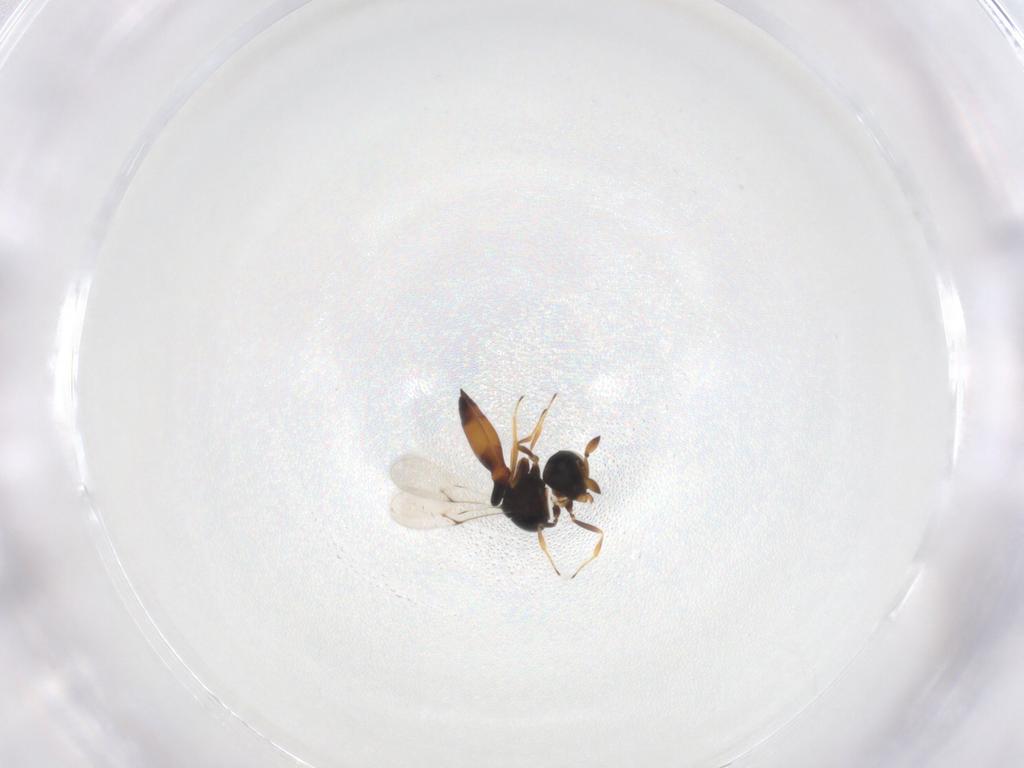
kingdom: Animalia
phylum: Arthropoda
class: Insecta
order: Hymenoptera
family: Scelionidae
